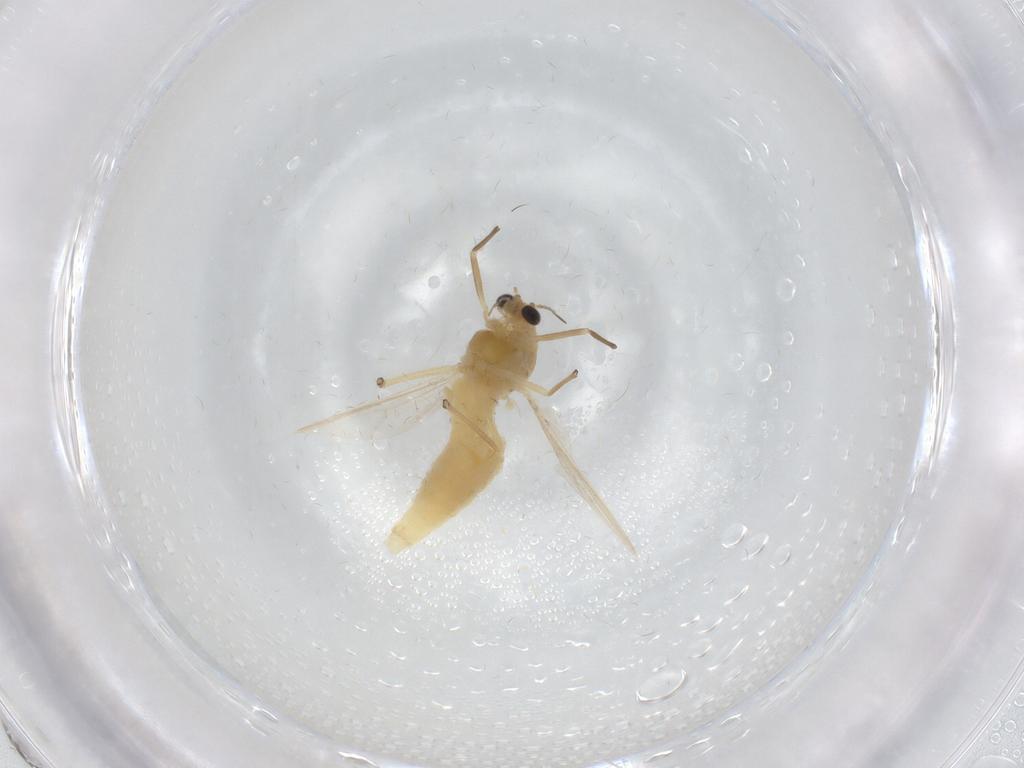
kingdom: Animalia
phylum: Arthropoda
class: Insecta
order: Diptera
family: Chironomidae
